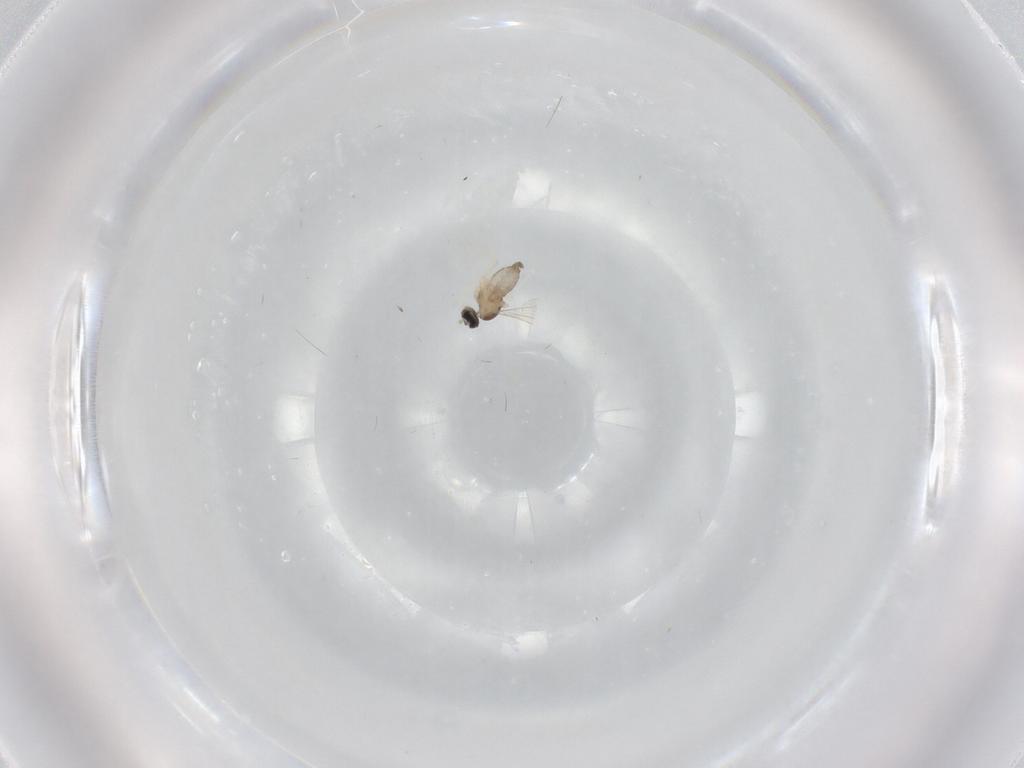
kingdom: Animalia
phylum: Arthropoda
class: Insecta
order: Diptera
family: Cecidomyiidae
